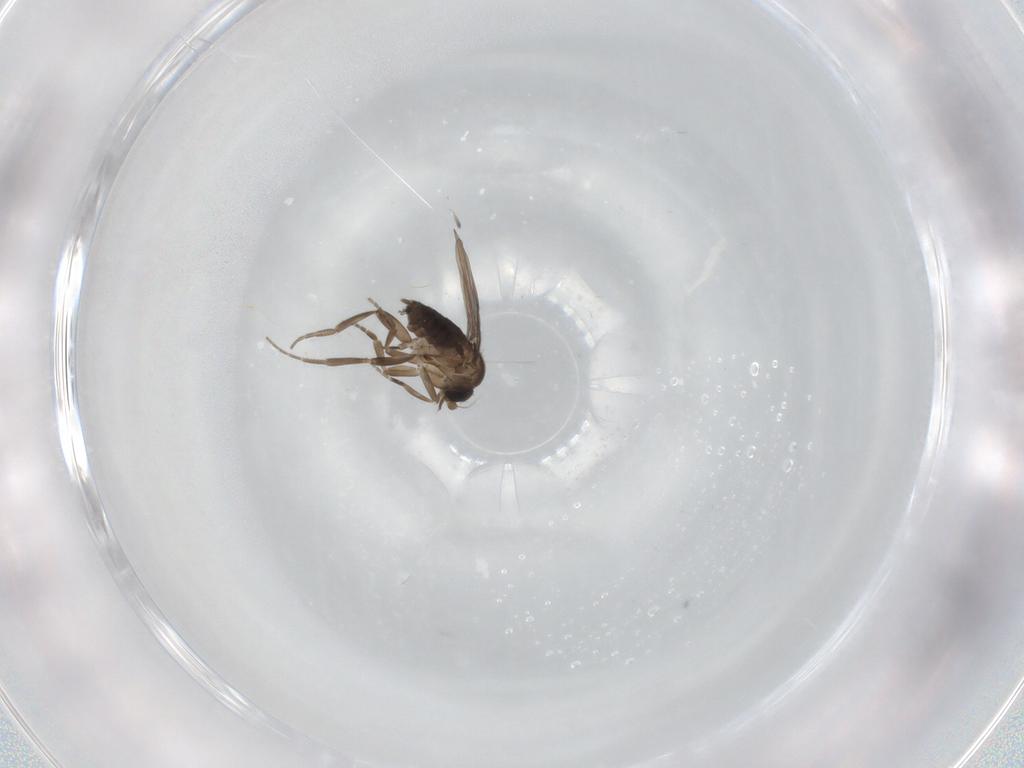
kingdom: Animalia
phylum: Arthropoda
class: Insecta
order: Diptera
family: Phoridae
